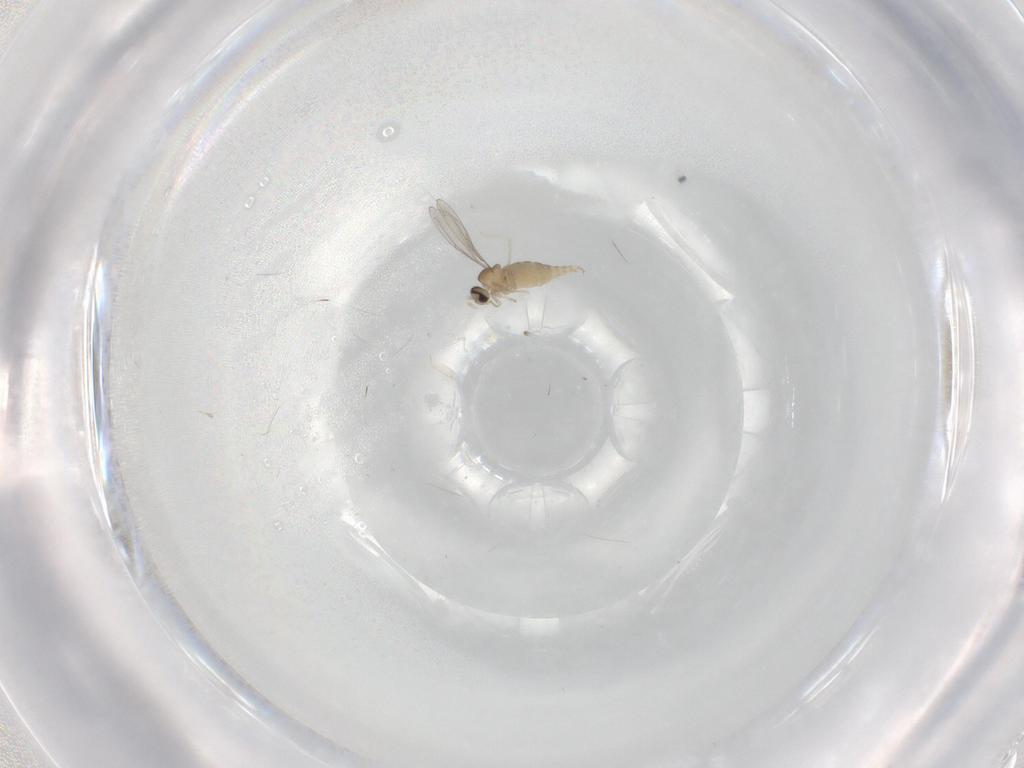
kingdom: Animalia
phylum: Arthropoda
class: Insecta
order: Diptera
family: Cecidomyiidae
